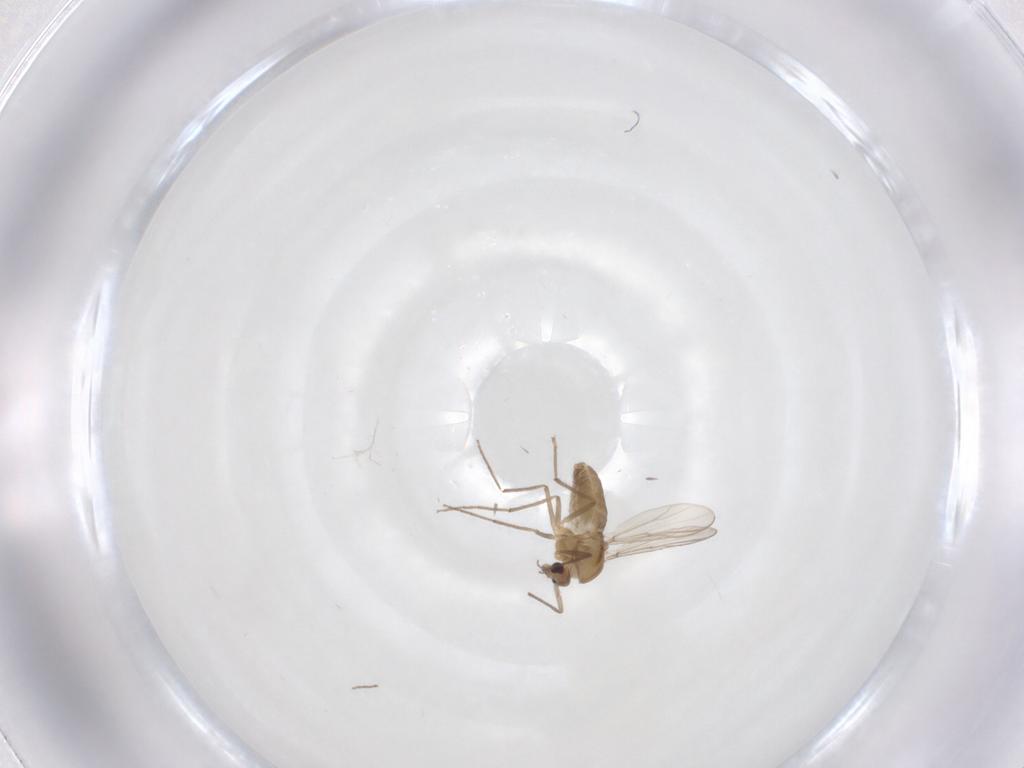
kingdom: Animalia
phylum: Arthropoda
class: Insecta
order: Diptera
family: Chironomidae
